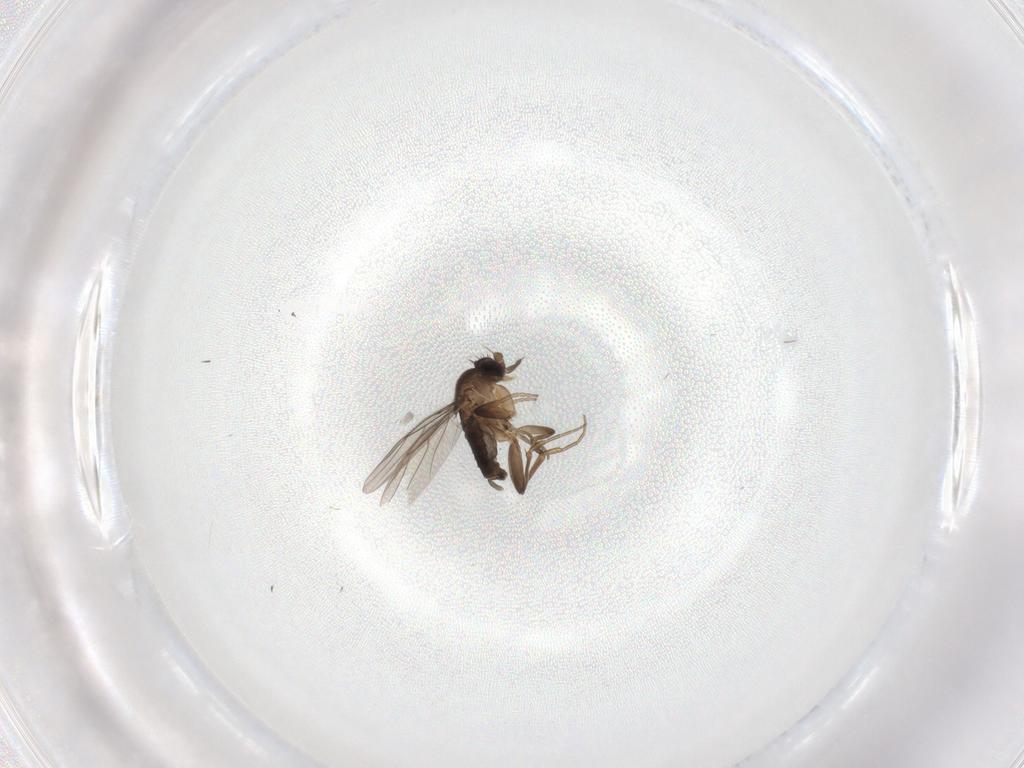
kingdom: Animalia
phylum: Arthropoda
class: Insecta
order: Diptera
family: Phoridae
